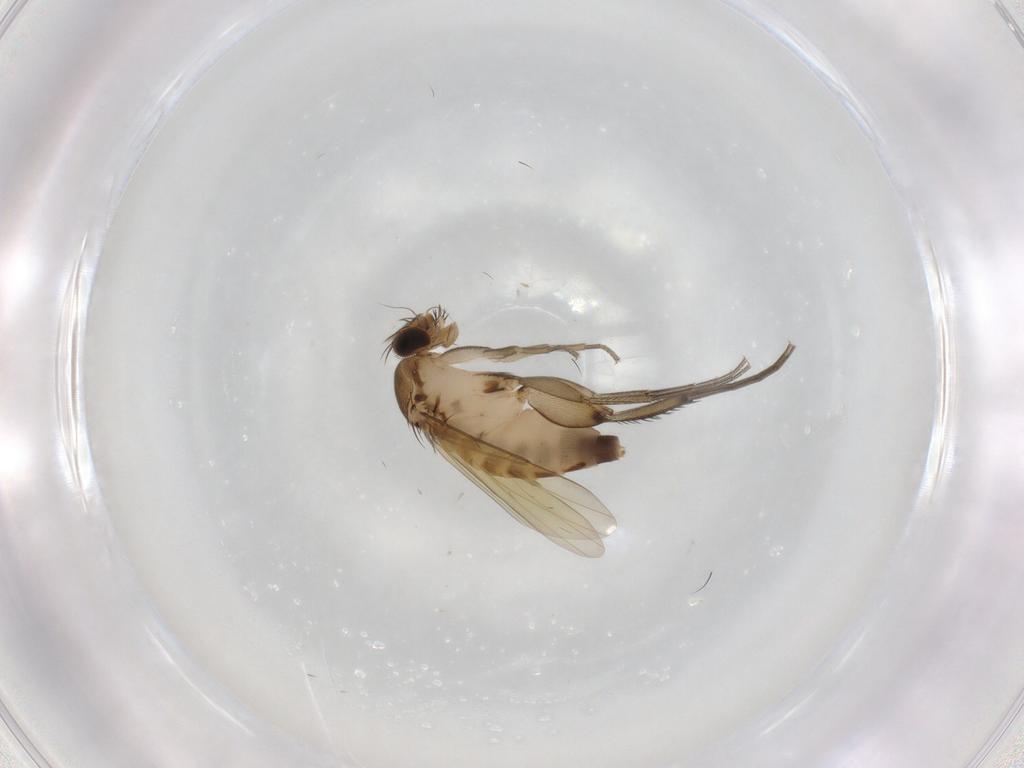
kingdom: Animalia
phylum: Arthropoda
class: Insecta
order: Diptera
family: Phoridae
